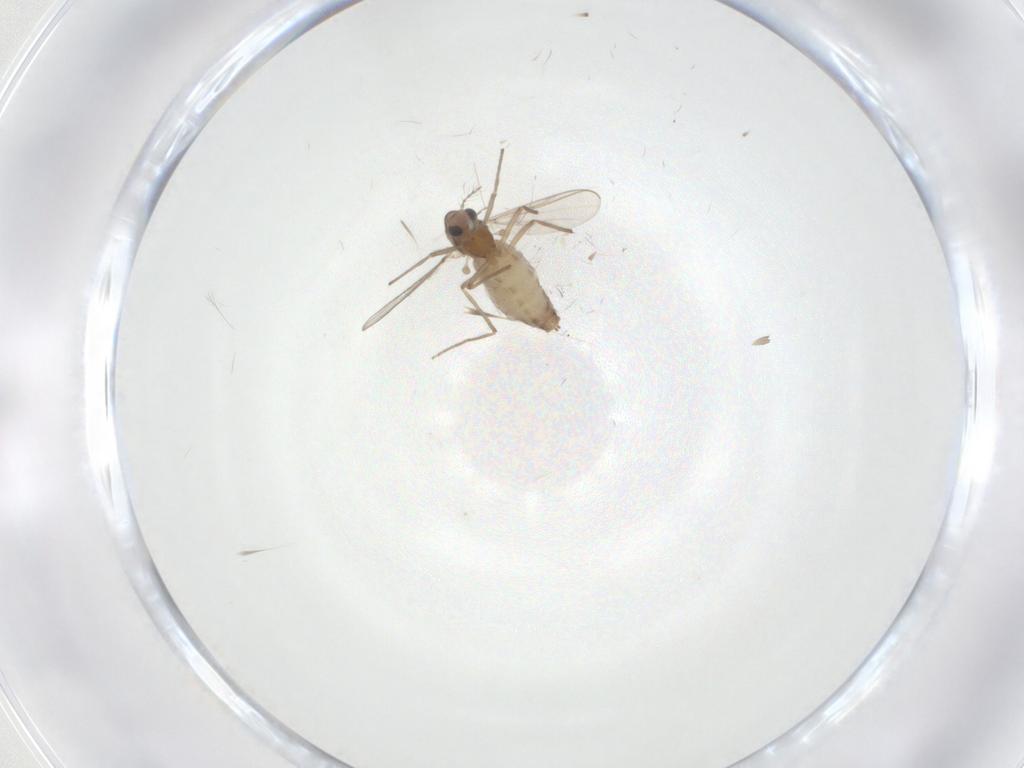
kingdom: Animalia
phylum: Arthropoda
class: Insecta
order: Diptera
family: Chironomidae
